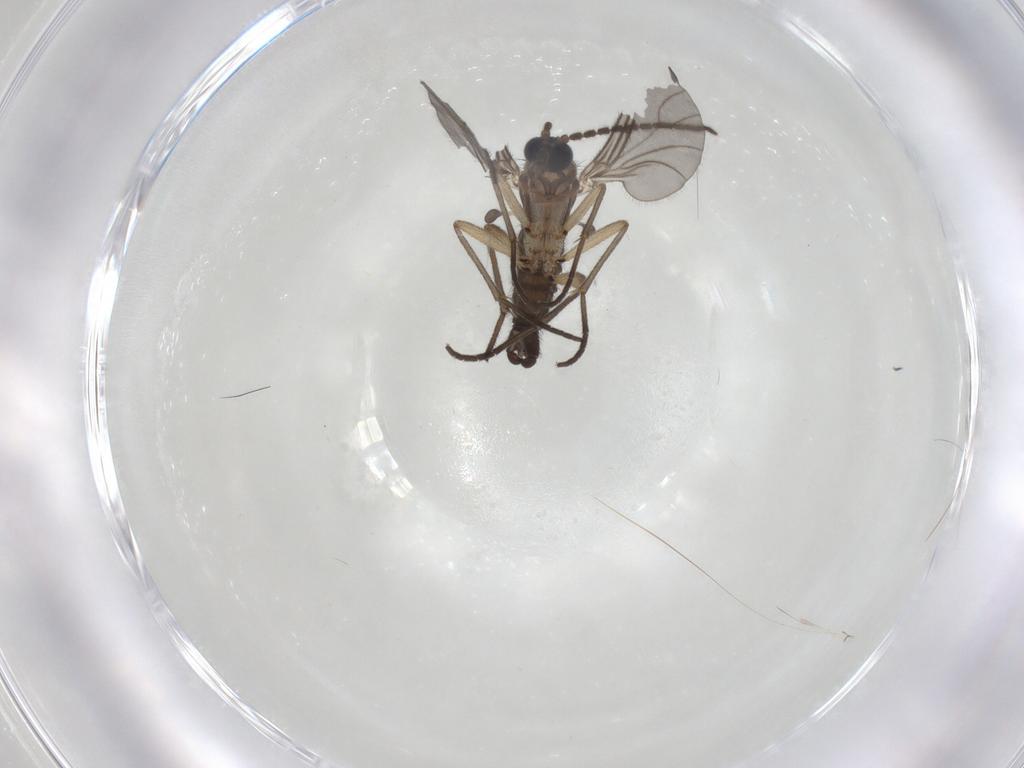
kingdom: Animalia
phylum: Arthropoda
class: Insecta
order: Diptera
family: Sciaridae
